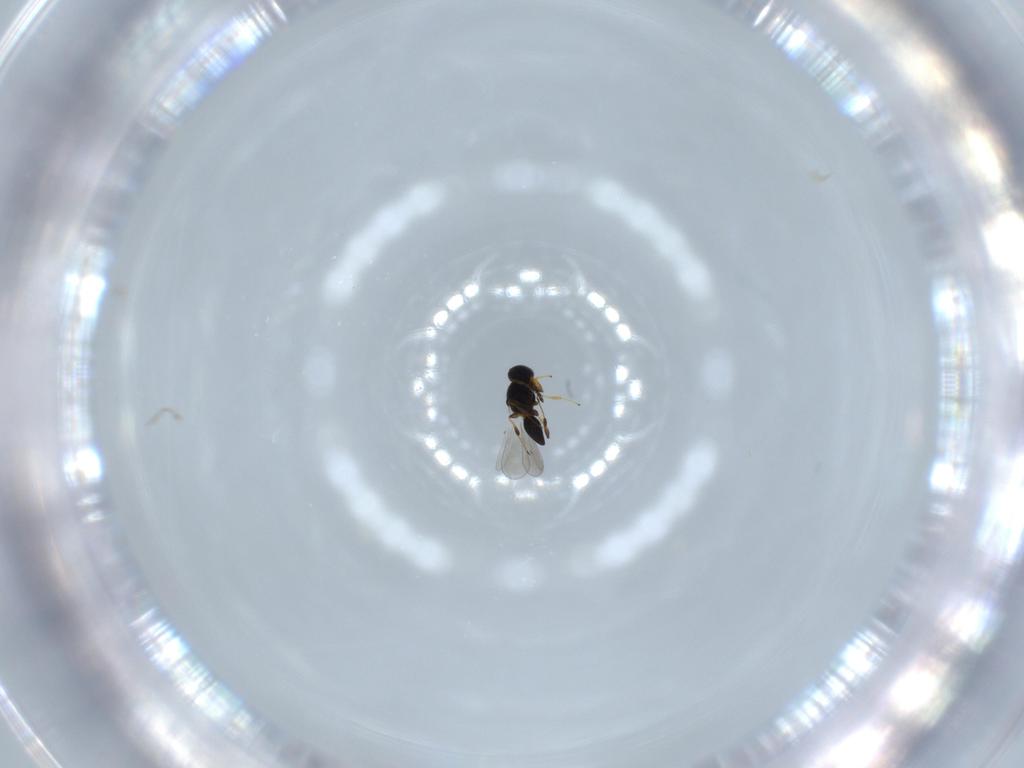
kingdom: Animalia
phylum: Arthropoda
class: Insecta
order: Hymenoptera
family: Platygastridae
